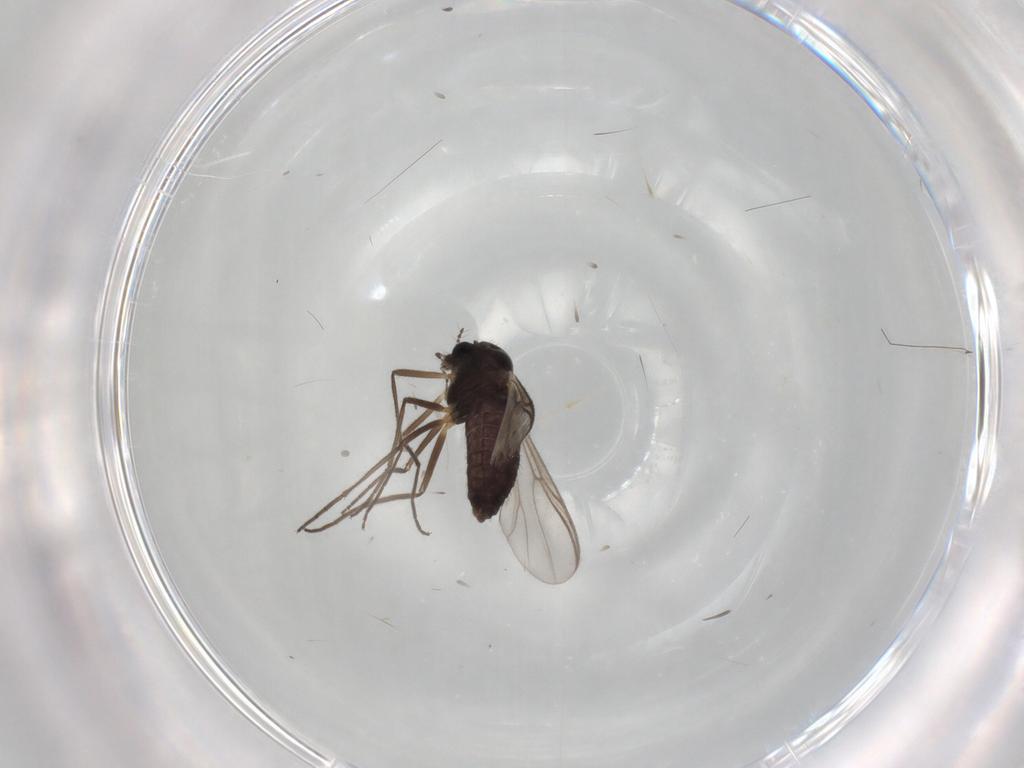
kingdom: Animalia
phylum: Arthropoda
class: Insecta
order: Diptera
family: Chironomidae
